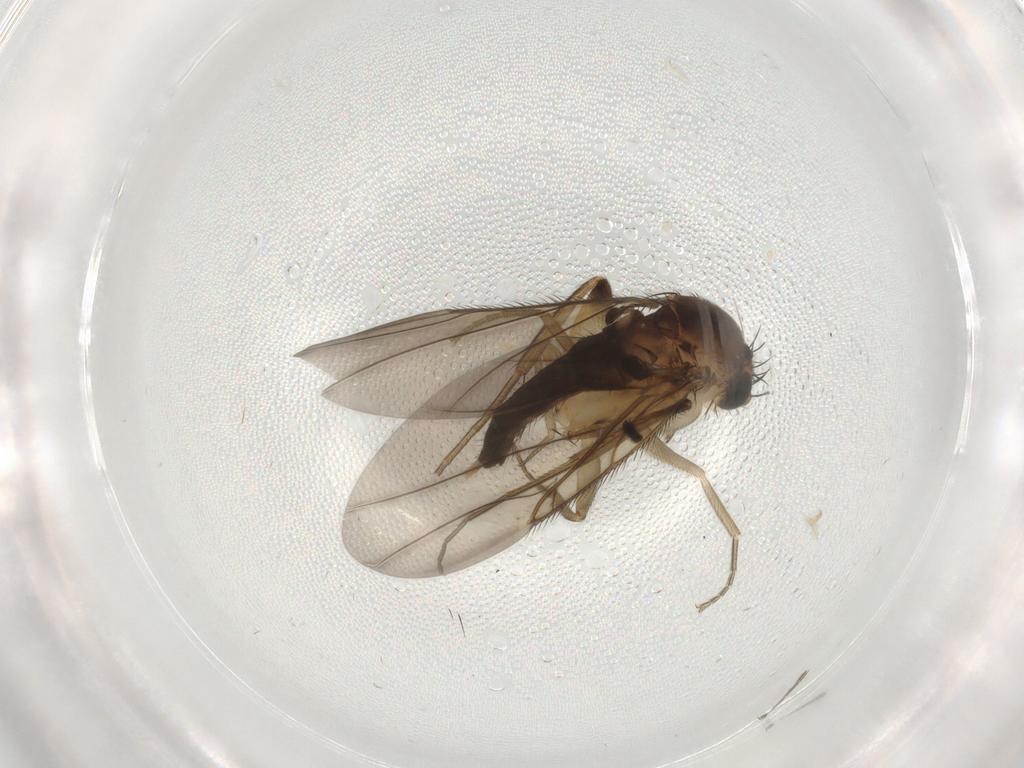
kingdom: Animalia
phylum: Arthropoda
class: Insecta
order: Diptera
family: Phoridae
